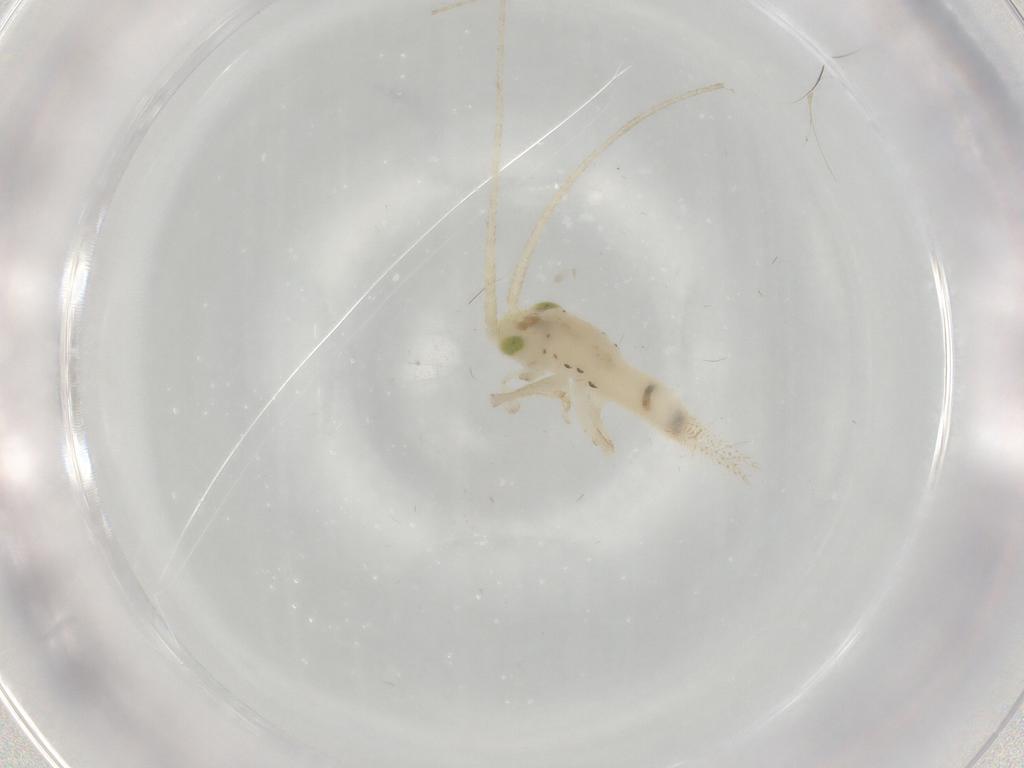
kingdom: Animalia
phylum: Arthropoda
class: Insecta
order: Orthoptera
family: Trigonidiidae
